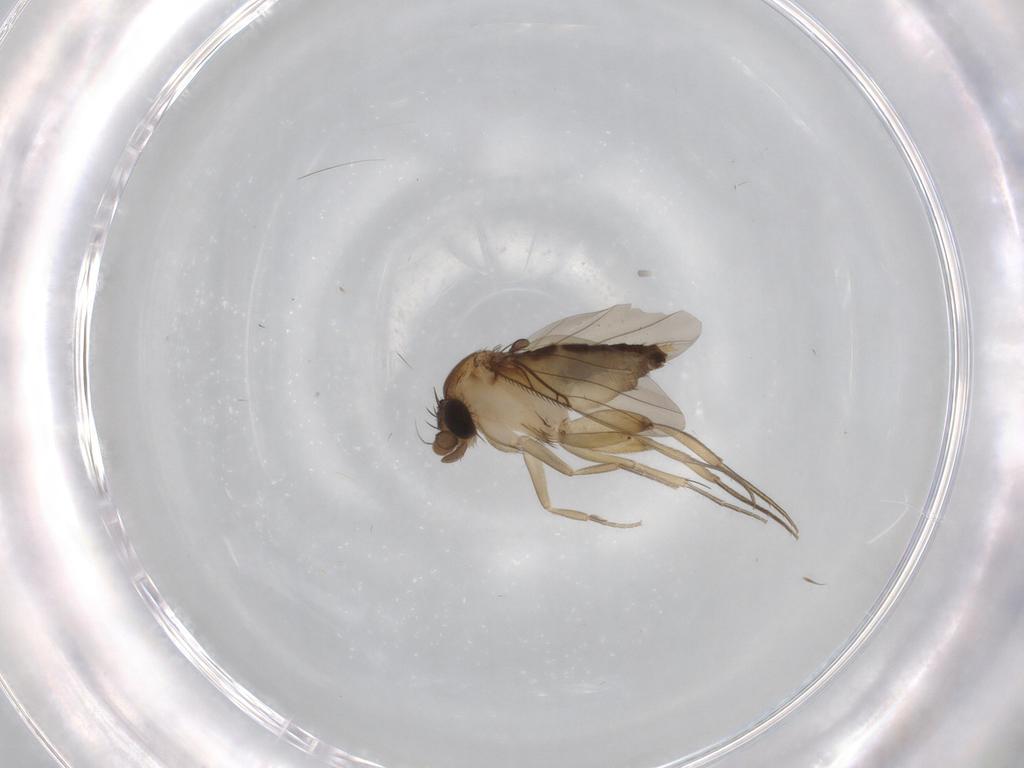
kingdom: Animalia
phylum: Arthropoda
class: Insecta
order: Diptera
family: Phoridae
